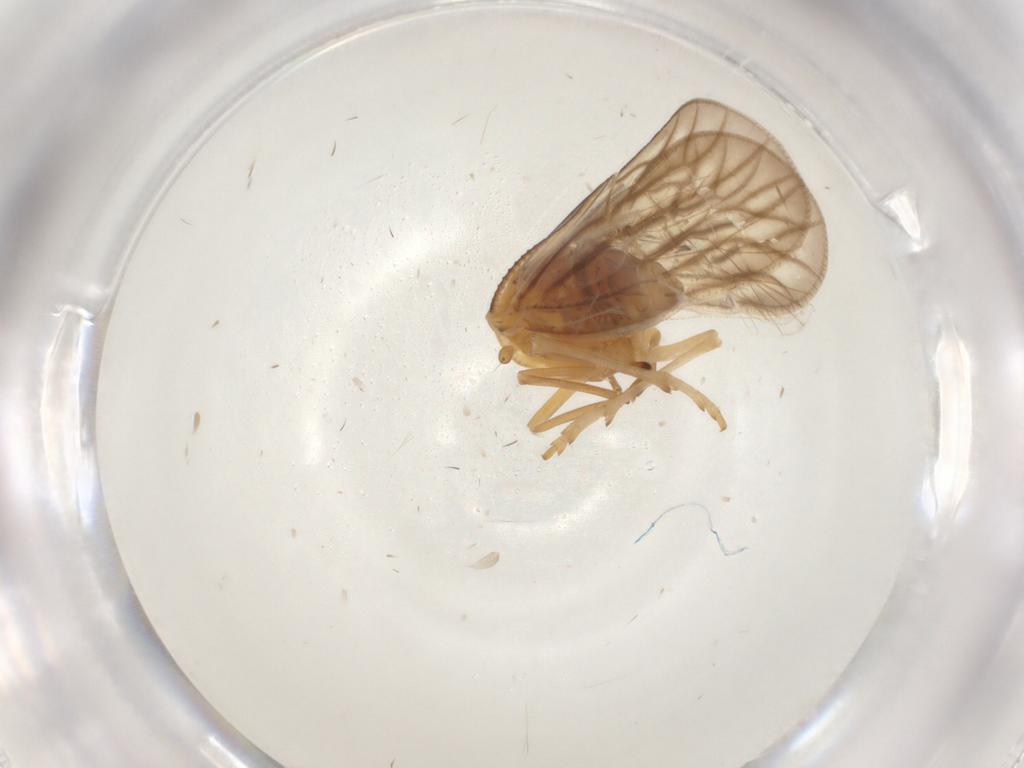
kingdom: Animalia
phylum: Arthropoda
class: Insecta
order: Hemiptera
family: Meenoplidae
